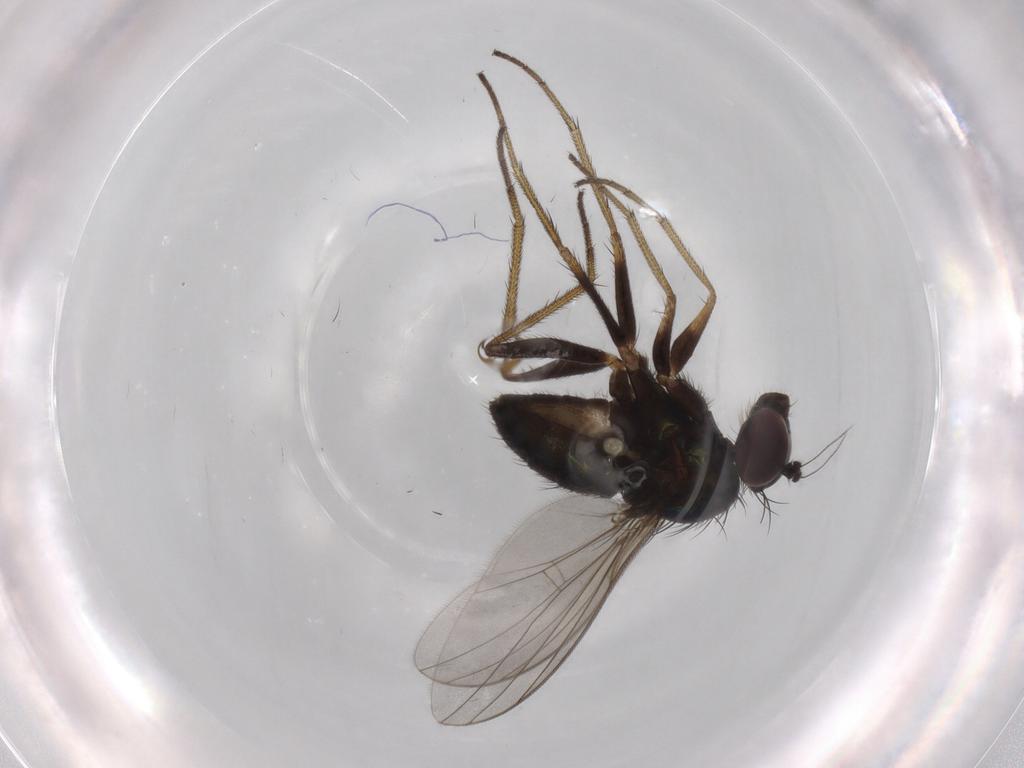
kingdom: Animalia
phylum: Arthropoda
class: Insecta
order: Diptera
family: Dolichopodidae
